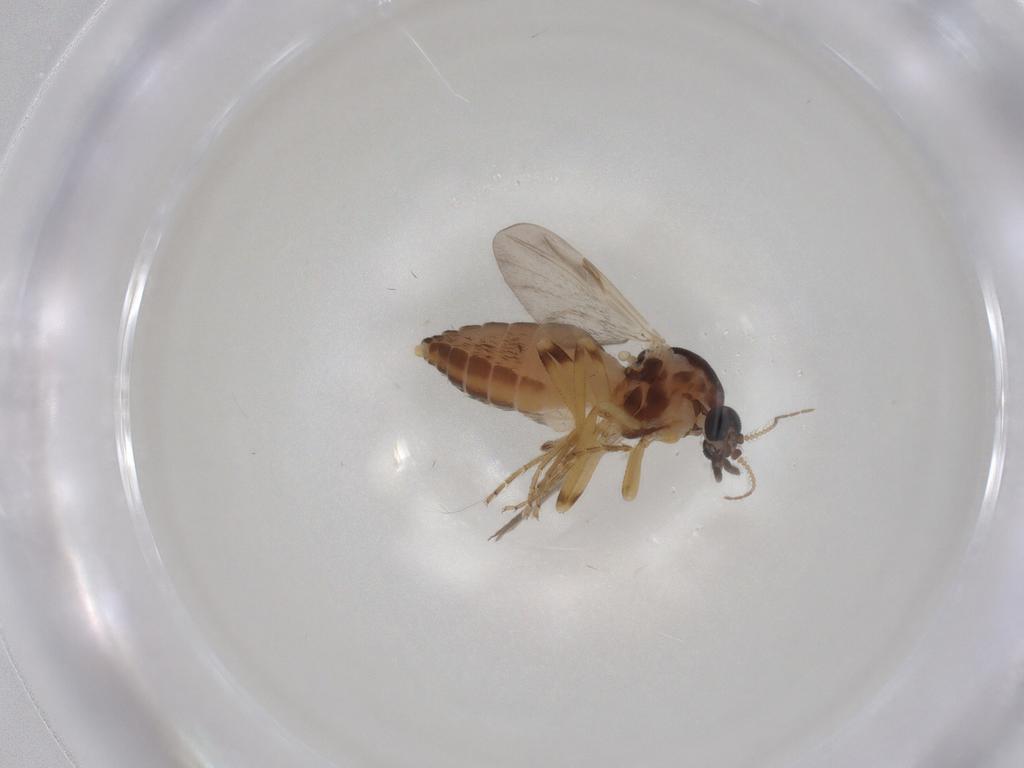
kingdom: Animalia
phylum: Arthropoda
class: Insecta
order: Diptera
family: Ceratopogonidae
